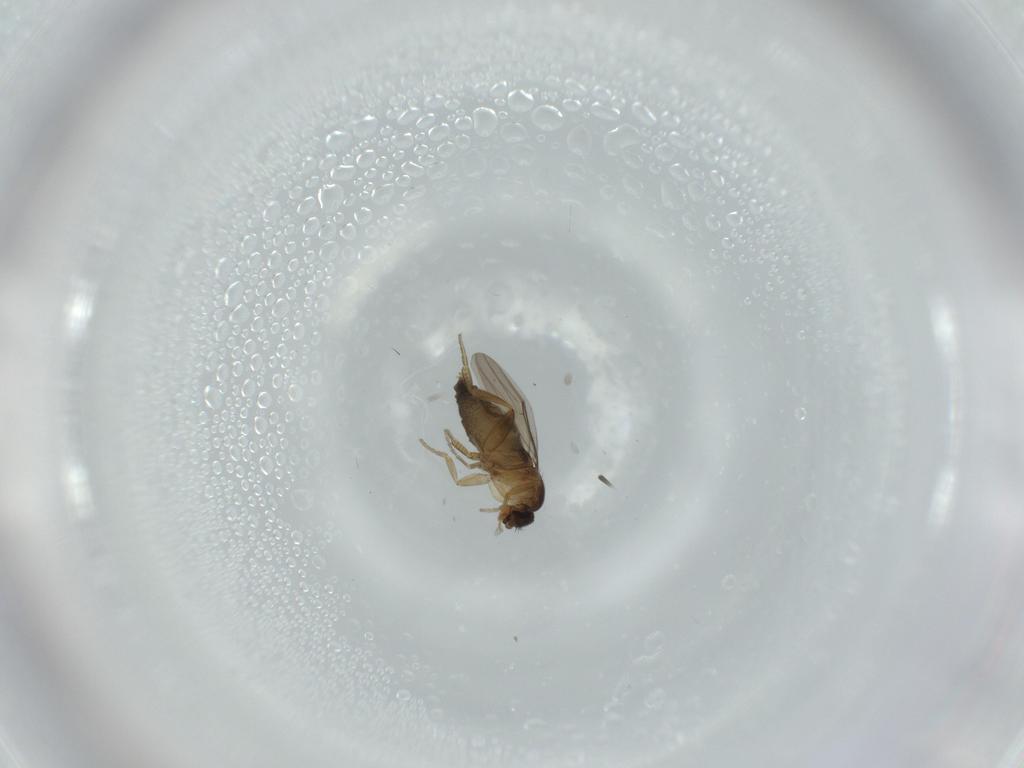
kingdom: Animalia
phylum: Arthropoda
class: Insecta
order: Diptera
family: Phoridae
